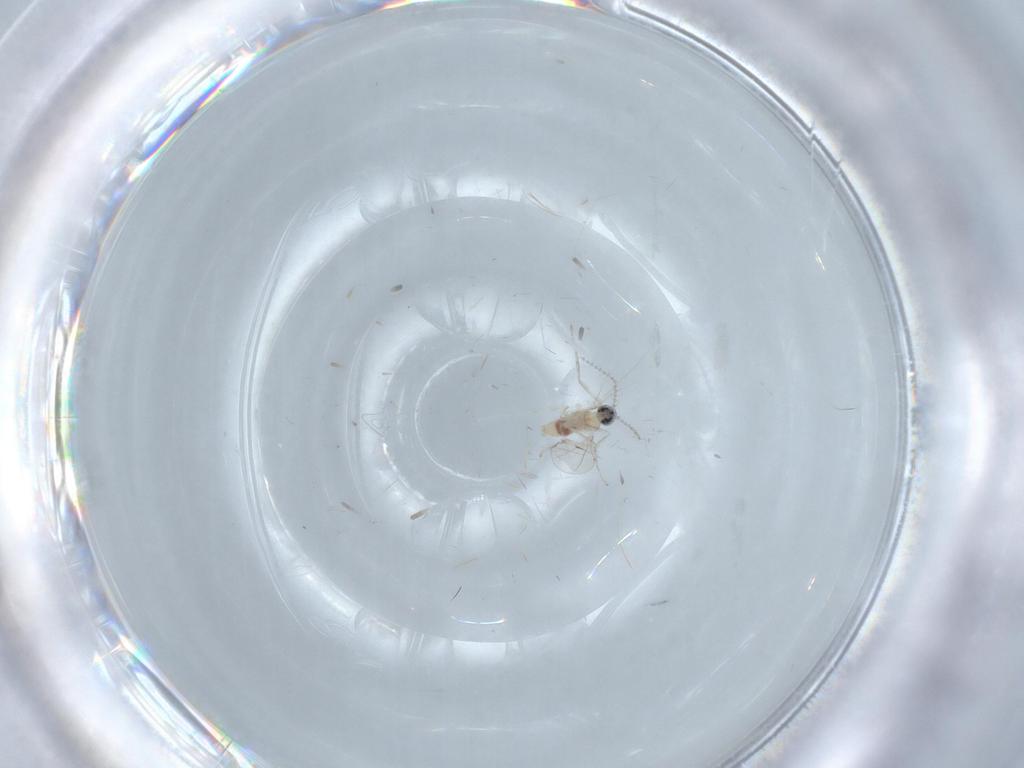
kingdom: Animalia
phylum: Arthropoda
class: Insecta
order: Diptera
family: Cecidomyiidae
